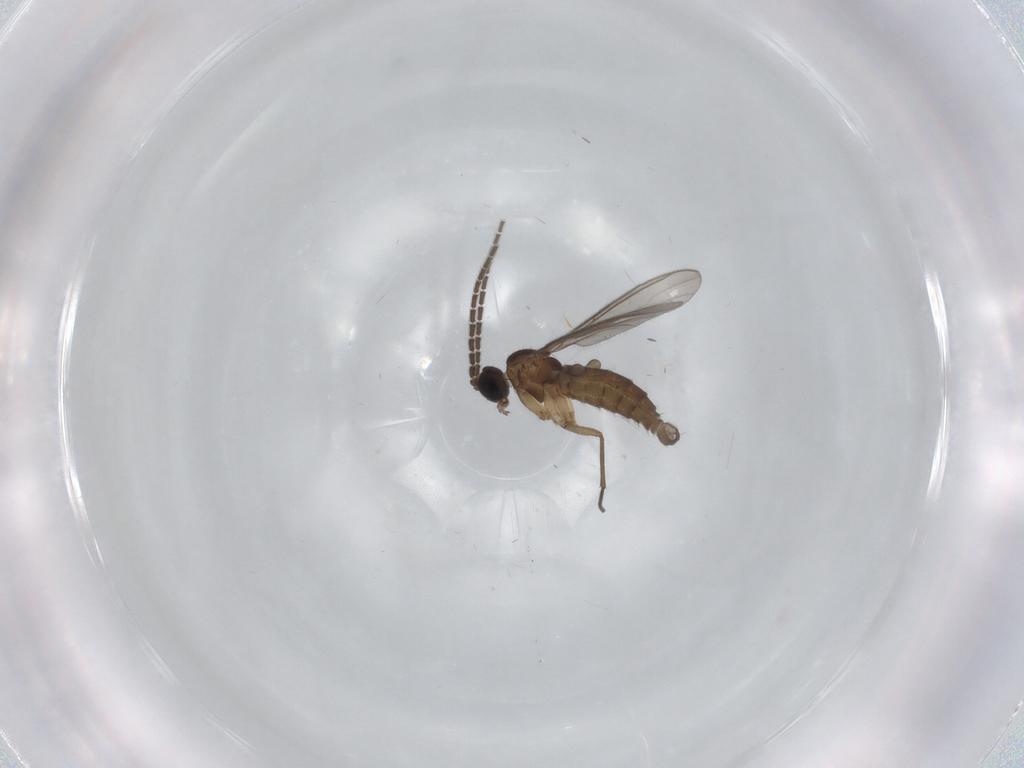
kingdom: Animalia
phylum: Arthropoda
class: Insecta
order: Diptera
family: Sciaridae
